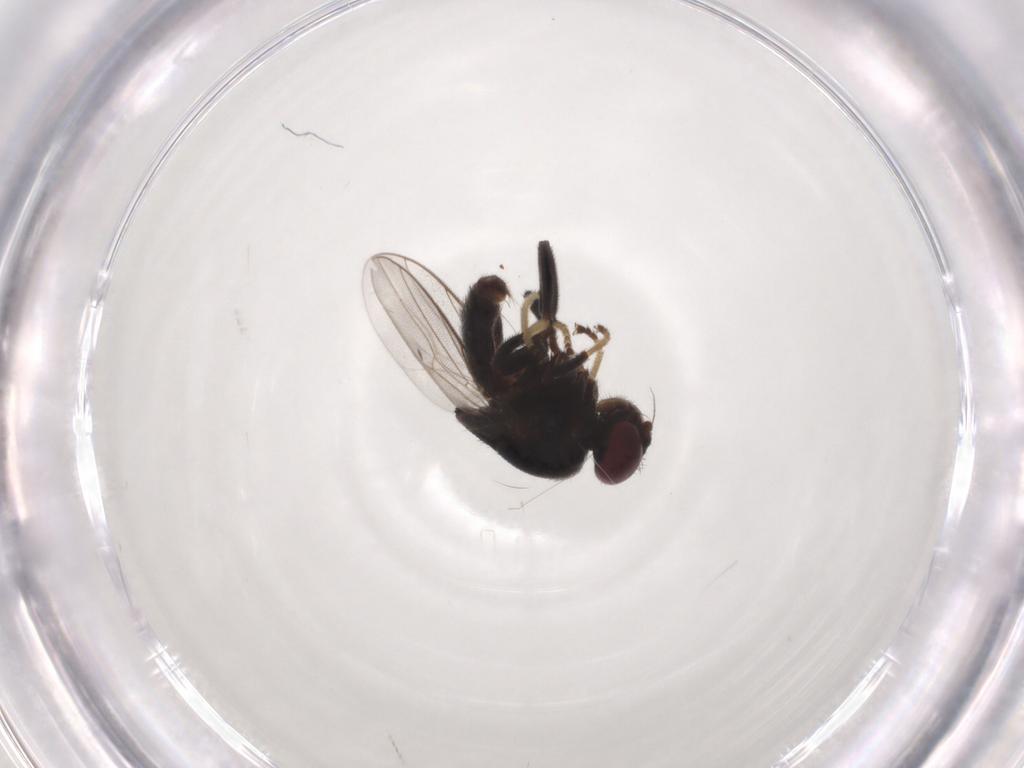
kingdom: Animalia
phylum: Arthropoda
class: Insecta
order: Diptera
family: Chloropidae
